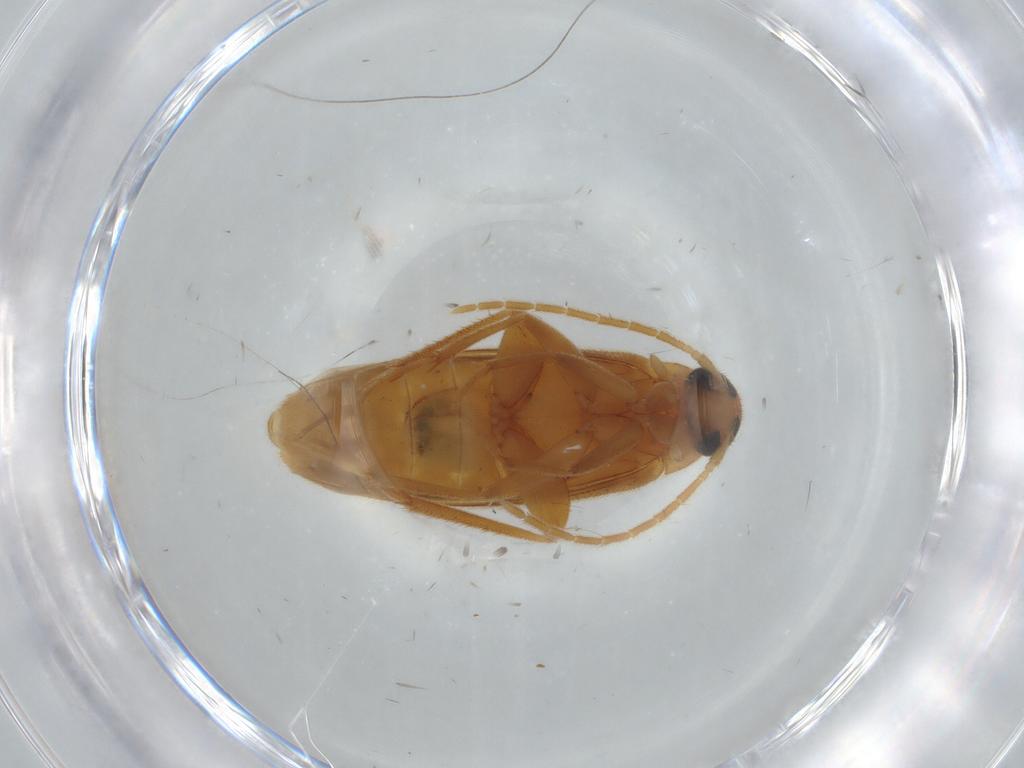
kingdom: Animalia
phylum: Arthropoda
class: Insecta
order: Coleoptera
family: Scraptiidae
